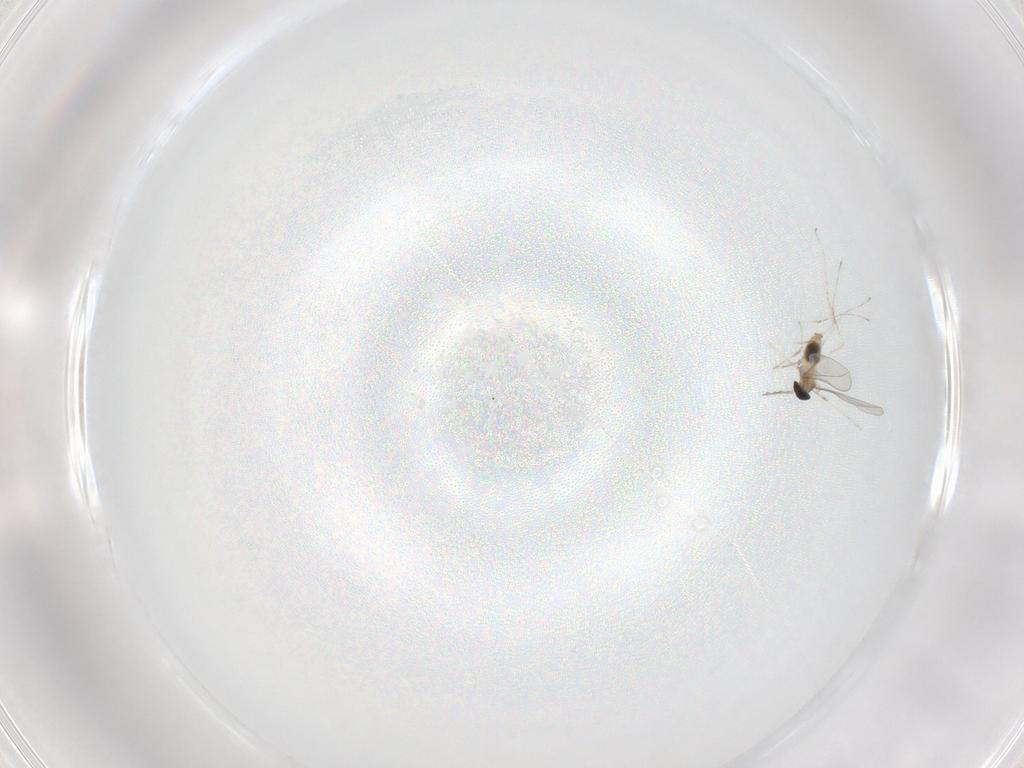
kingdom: Animalia
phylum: Arthropoda
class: Insecta
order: Diptera
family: Cecidomyiidae
